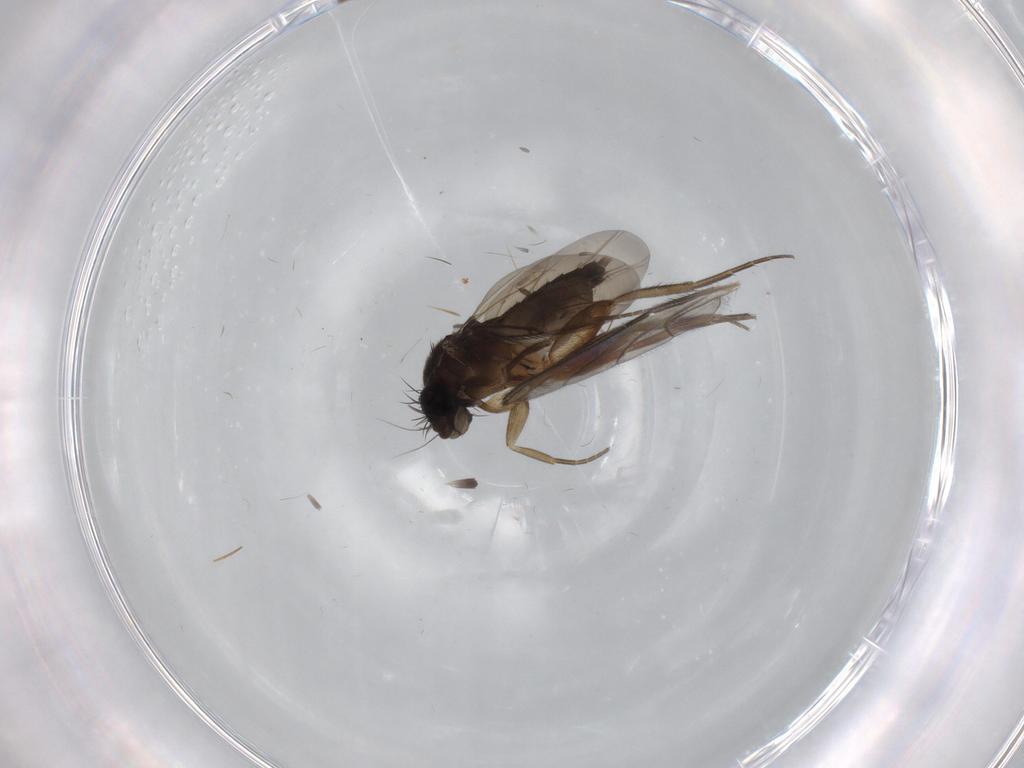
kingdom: Animalia
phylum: Arthropoda
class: Insecta
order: Diptera
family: Phoridae
